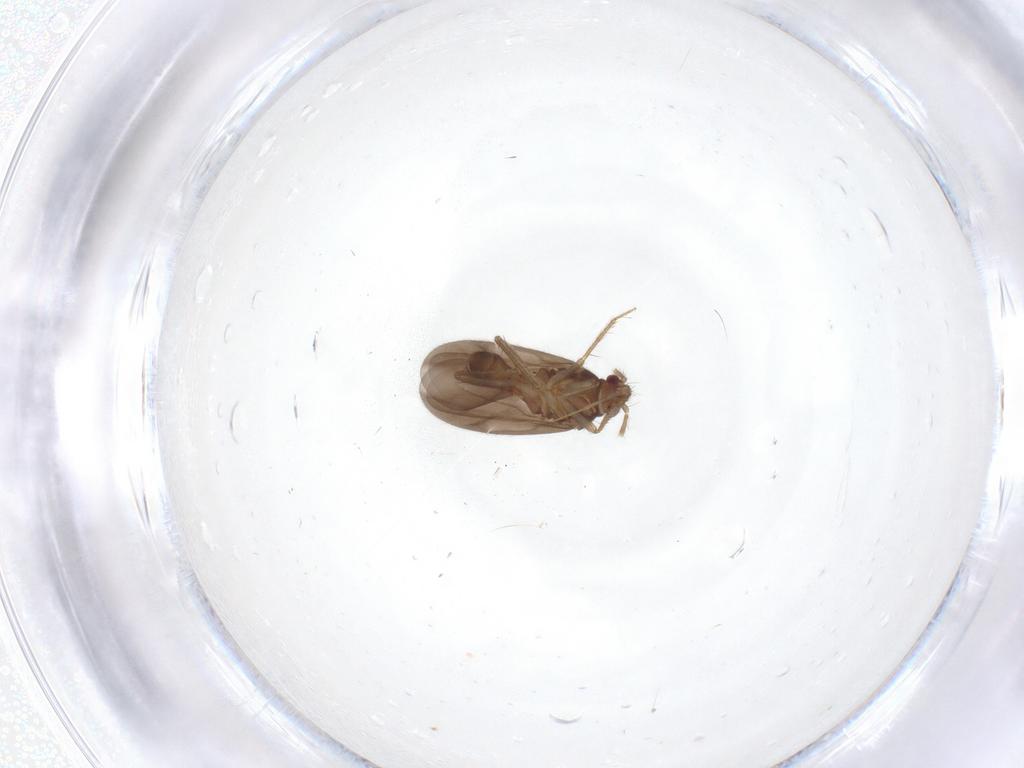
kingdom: Animalia
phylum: Arthropoda
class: Insecta
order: Hemiptera
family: Ceratocombidae
